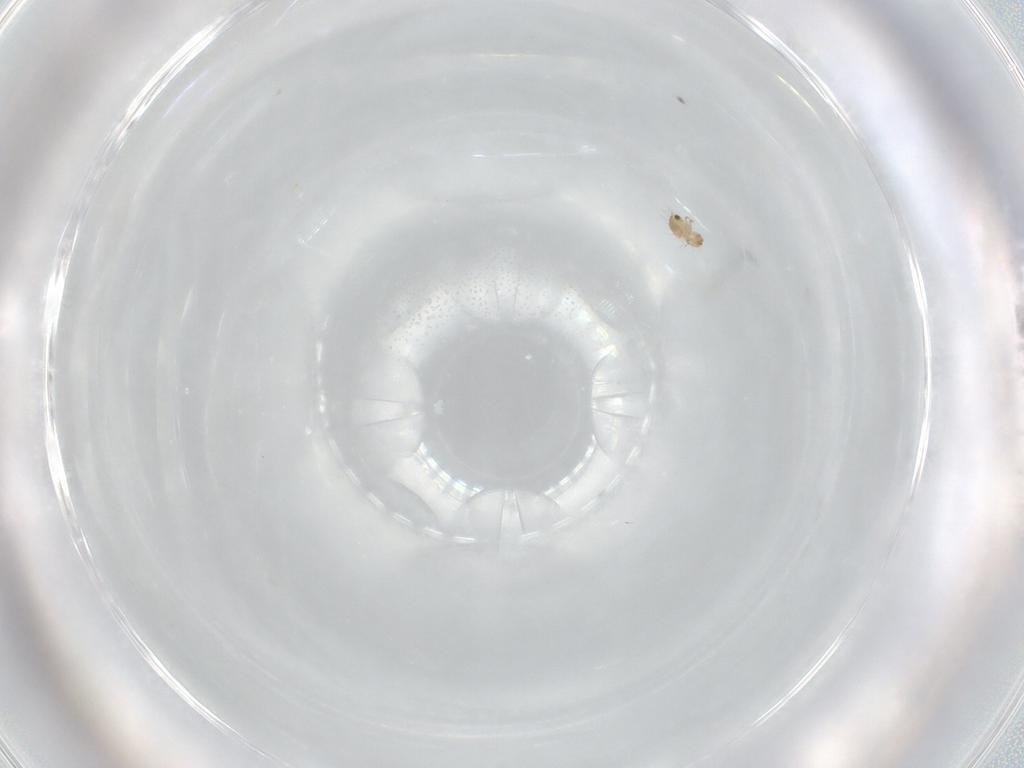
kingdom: Animalia
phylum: Arthropoda
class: Arachnida
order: Sarcoptiformes
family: Humerobatidae
